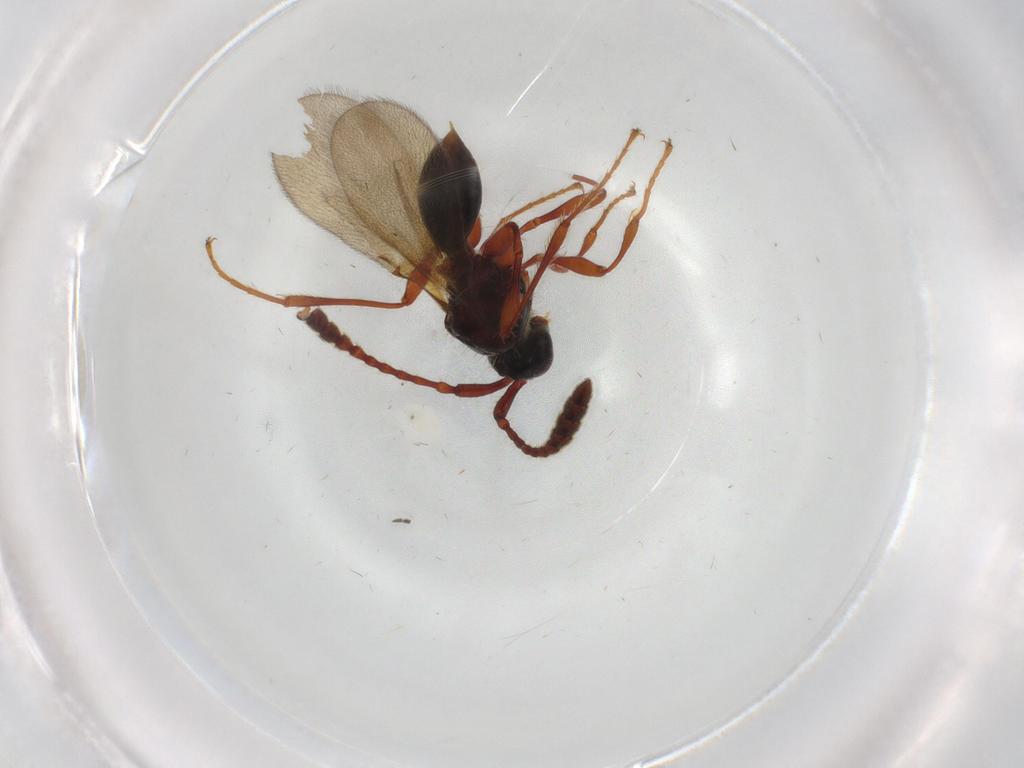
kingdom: Animalia
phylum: Arthropoda
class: Insecta
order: Hymenoptera
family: Diapriidae
